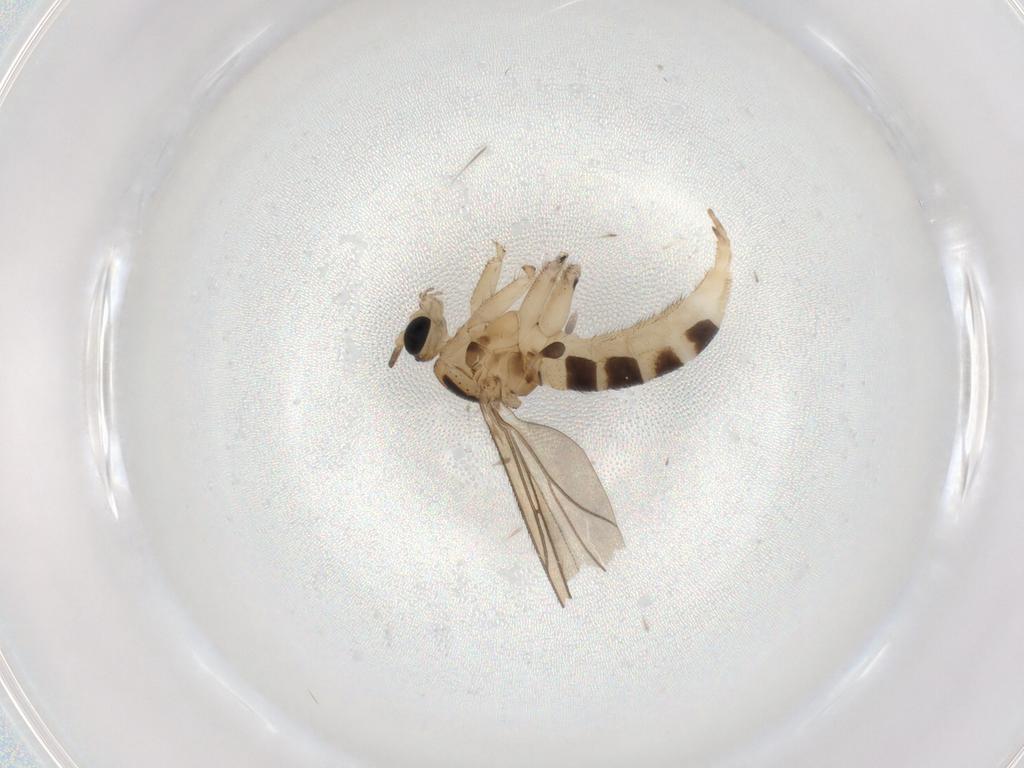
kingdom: Animalia
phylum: Arthropoda
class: Insecta
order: Diptera
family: Sciaridae
